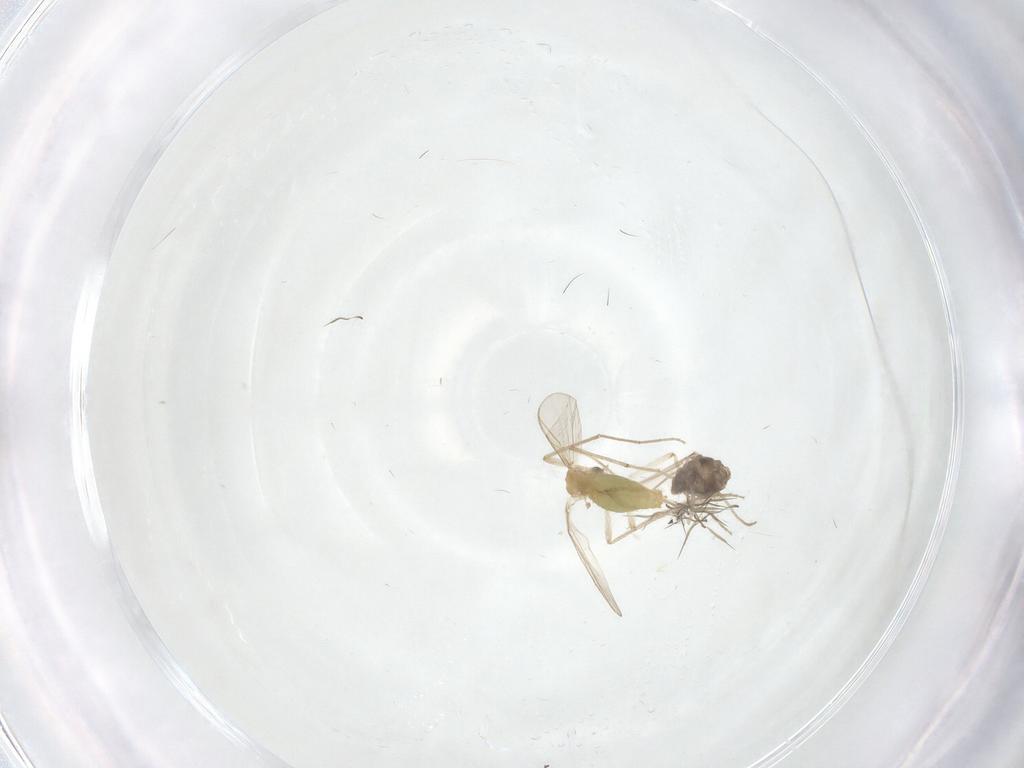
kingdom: Animalia
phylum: Arthropoda
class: Insecta
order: Diptera
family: Chironomidae
